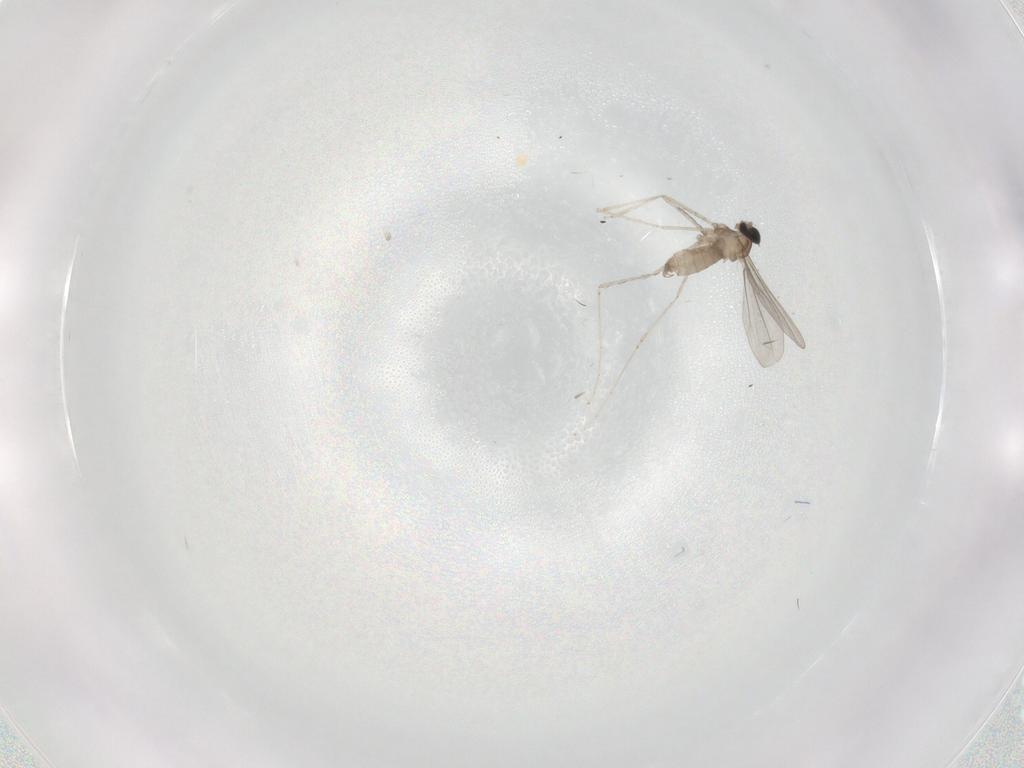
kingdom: Animalia
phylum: Arthropoda
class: Insecta
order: Diptera
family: Cecidomyiidae
